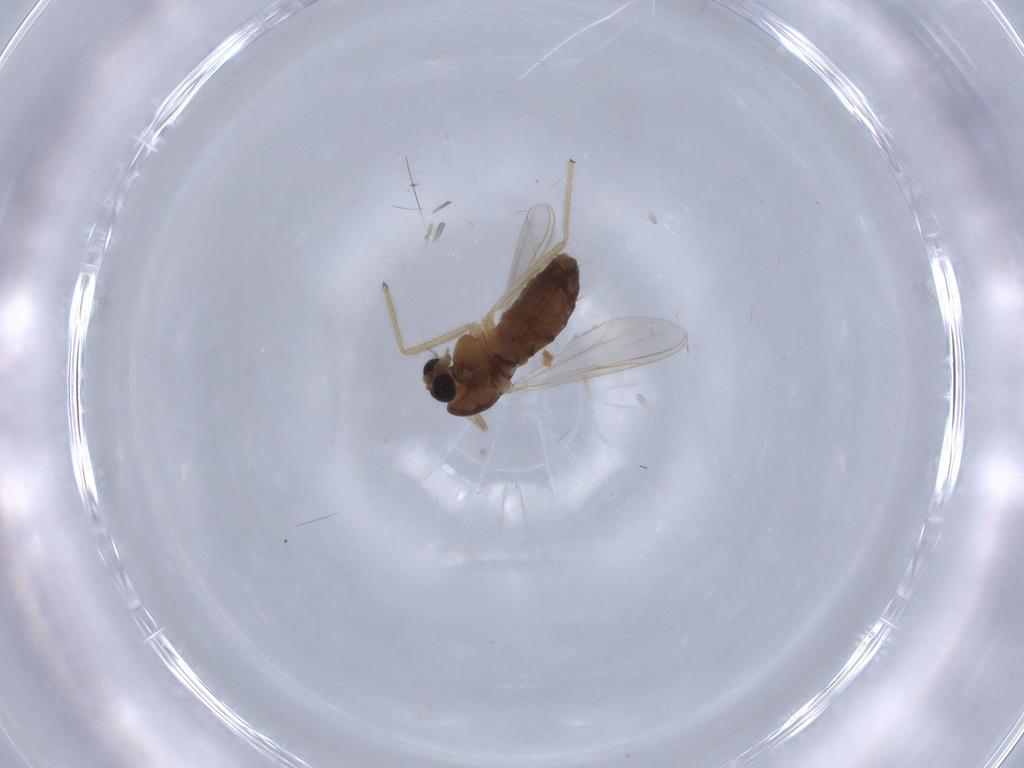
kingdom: Animalia
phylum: Arthropoda
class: Insecta
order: Diptera
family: Chironomidae
